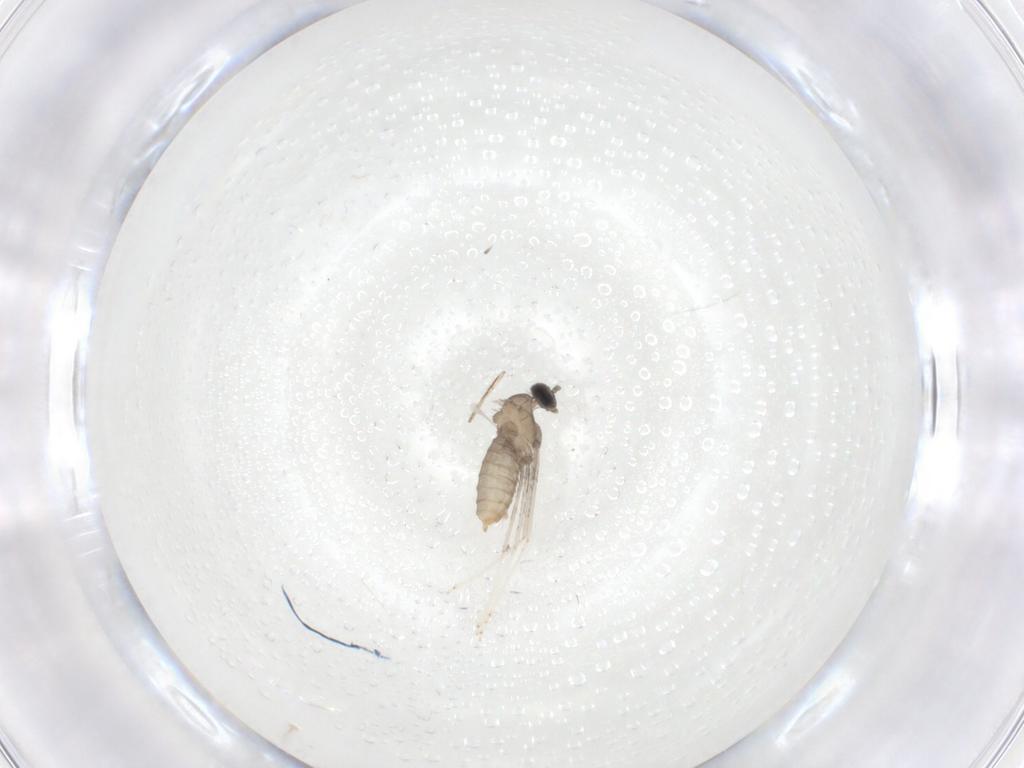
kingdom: Animalia
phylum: Arthropoda
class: Insecta
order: Diptera
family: Cecidomyiidae
